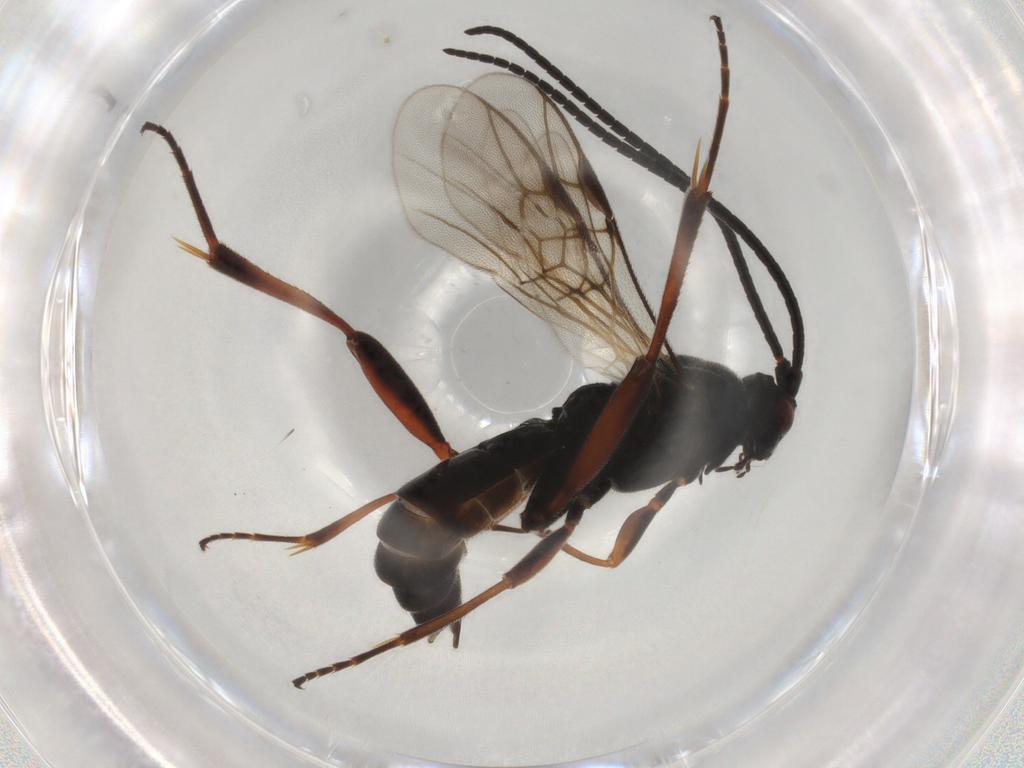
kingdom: Animalia
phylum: Arthropoda
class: Insecta
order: Hymenoptera
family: Braconidae
